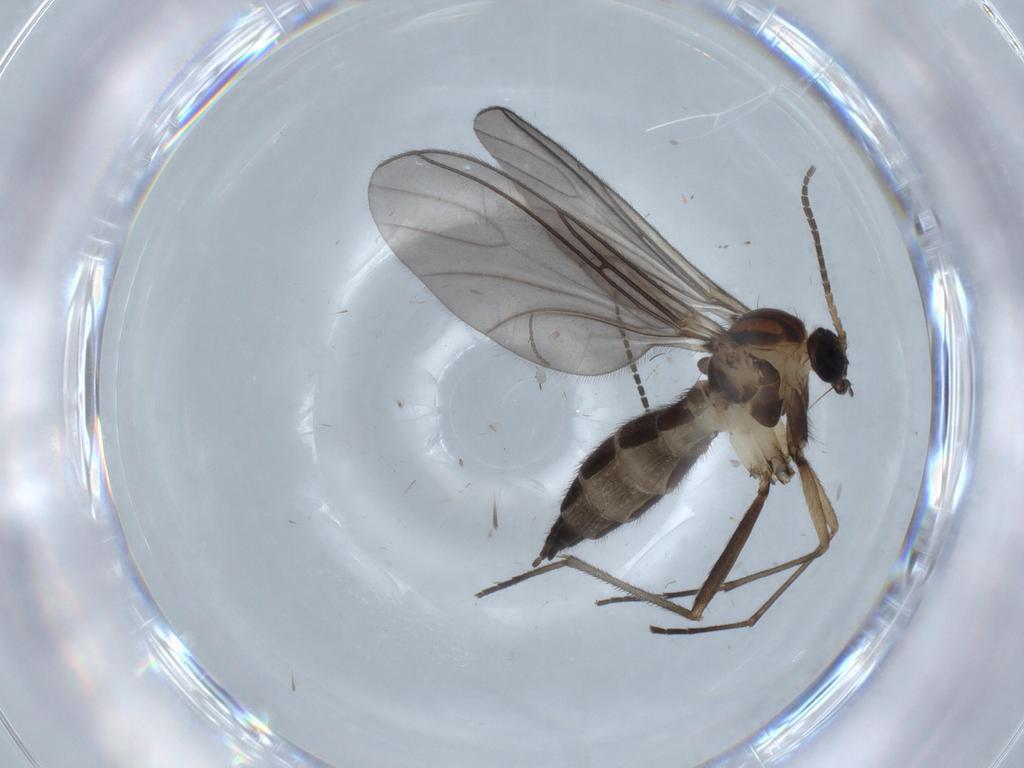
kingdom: Animalia
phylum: Arthropoda
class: Insecta
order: Diptera
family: Sciaridae
